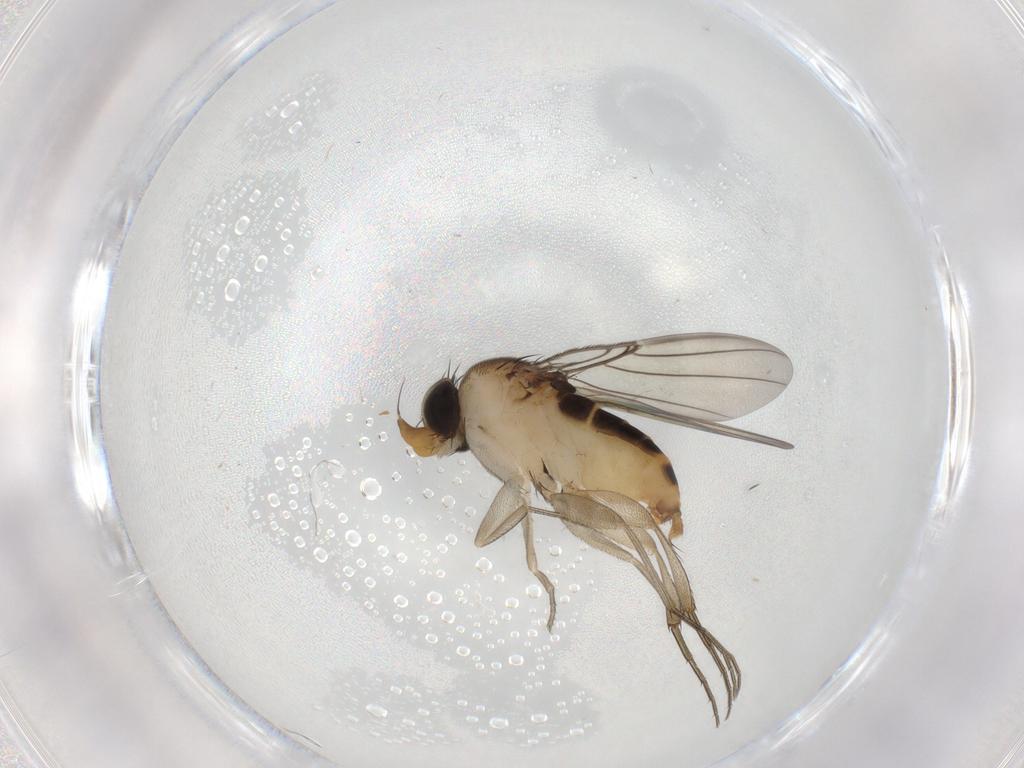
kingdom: Animalia
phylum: Arthropoda
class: Insecta
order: Diptera
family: Phoridae
